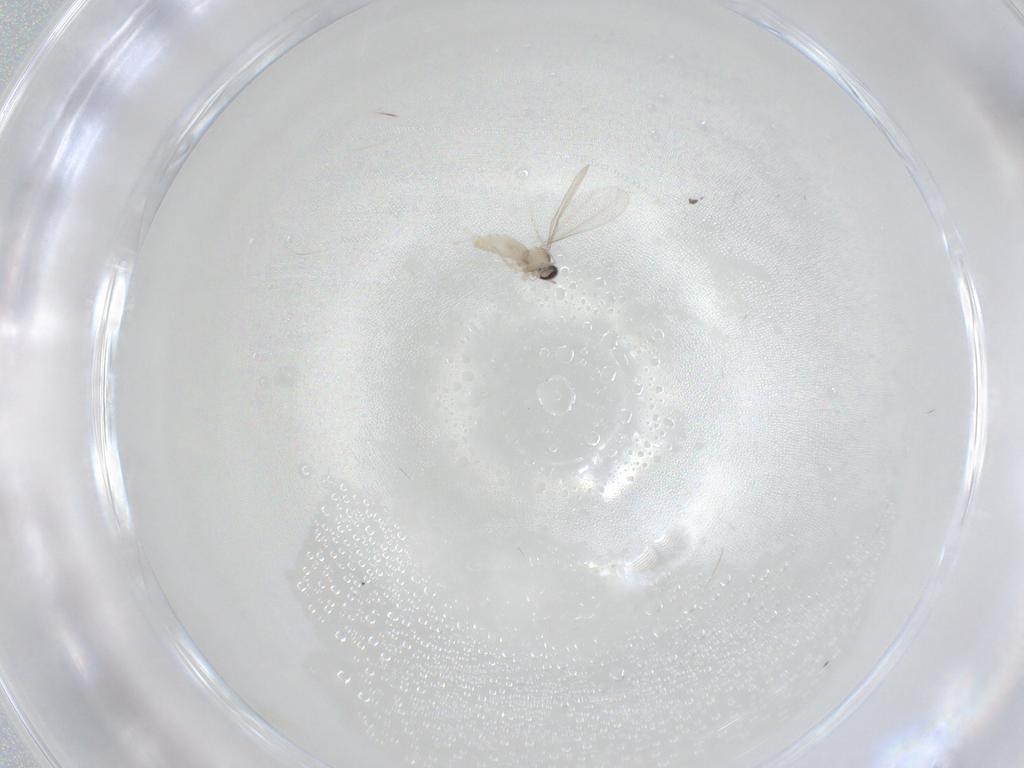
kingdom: Animalia
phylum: Arthropoda
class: Insecta
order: Diptera
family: Ceratopogonidae
